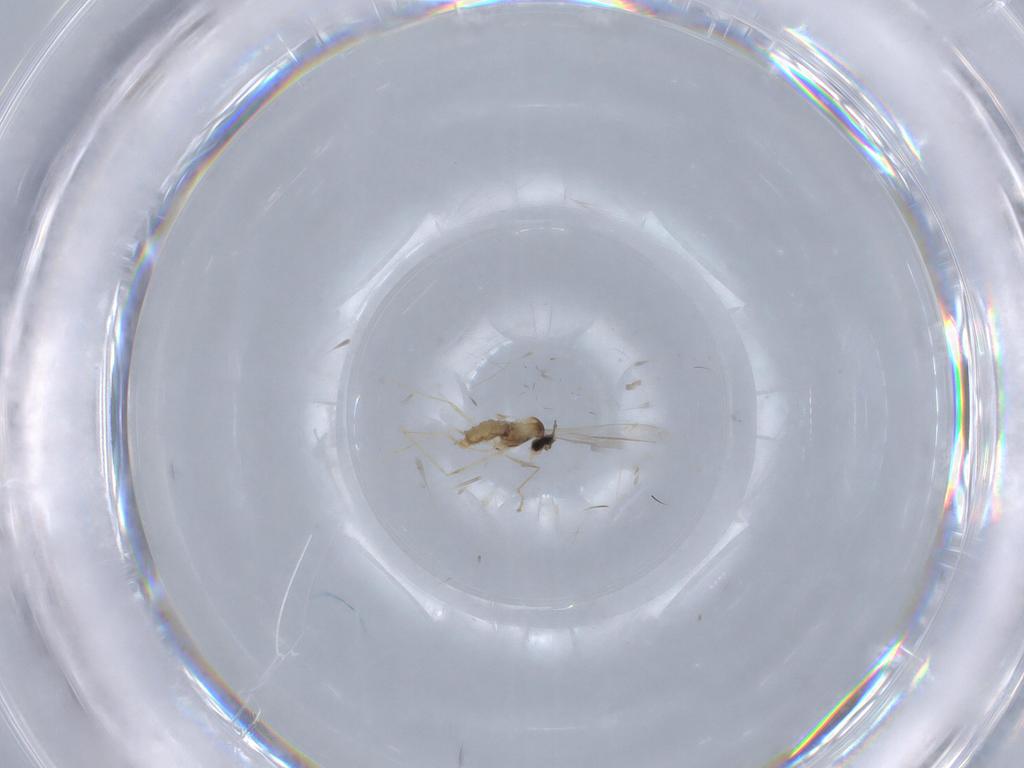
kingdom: Animalia
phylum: Arthropoda
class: Insecta
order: Diptera
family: Cecidomyiidae
